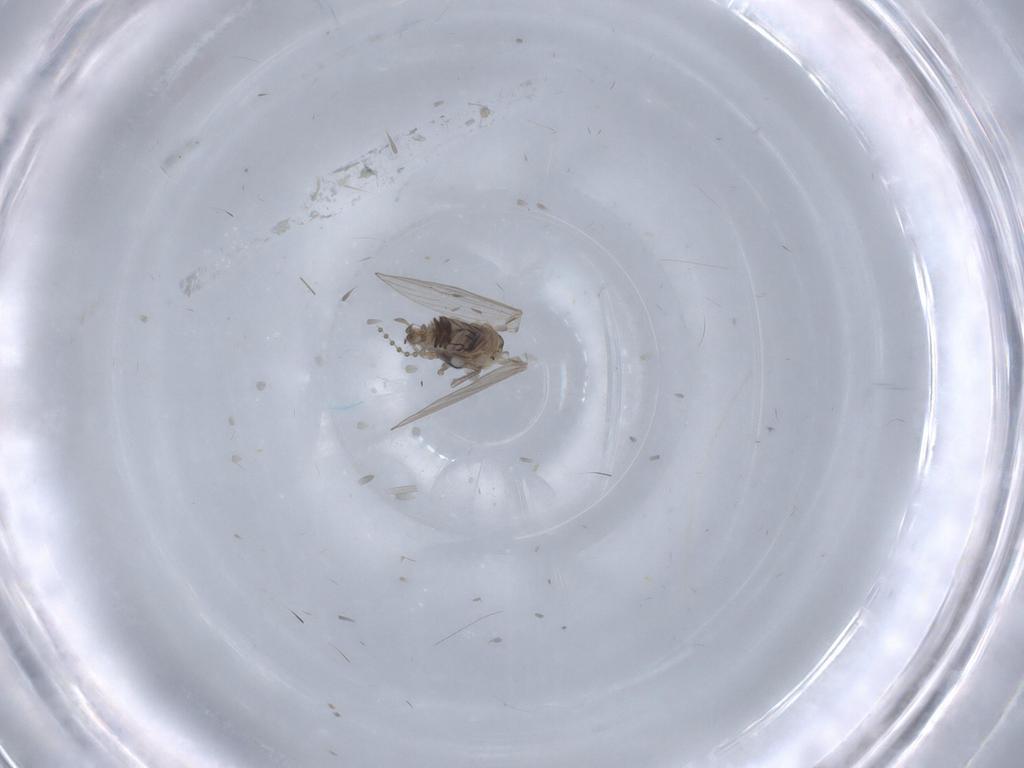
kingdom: Animalia
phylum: Arthropoda
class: Insecta
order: Diptera
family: Psychodidae
